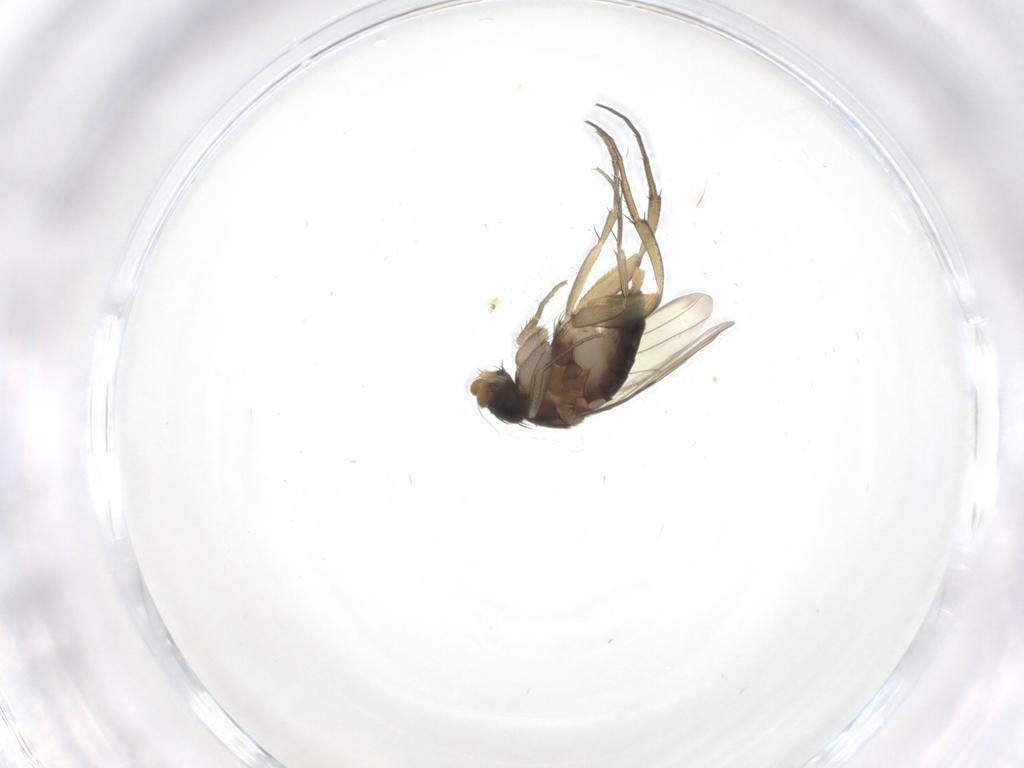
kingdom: Animalia
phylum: Arthropoda
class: Insecta
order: Diptera
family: Phoridae
